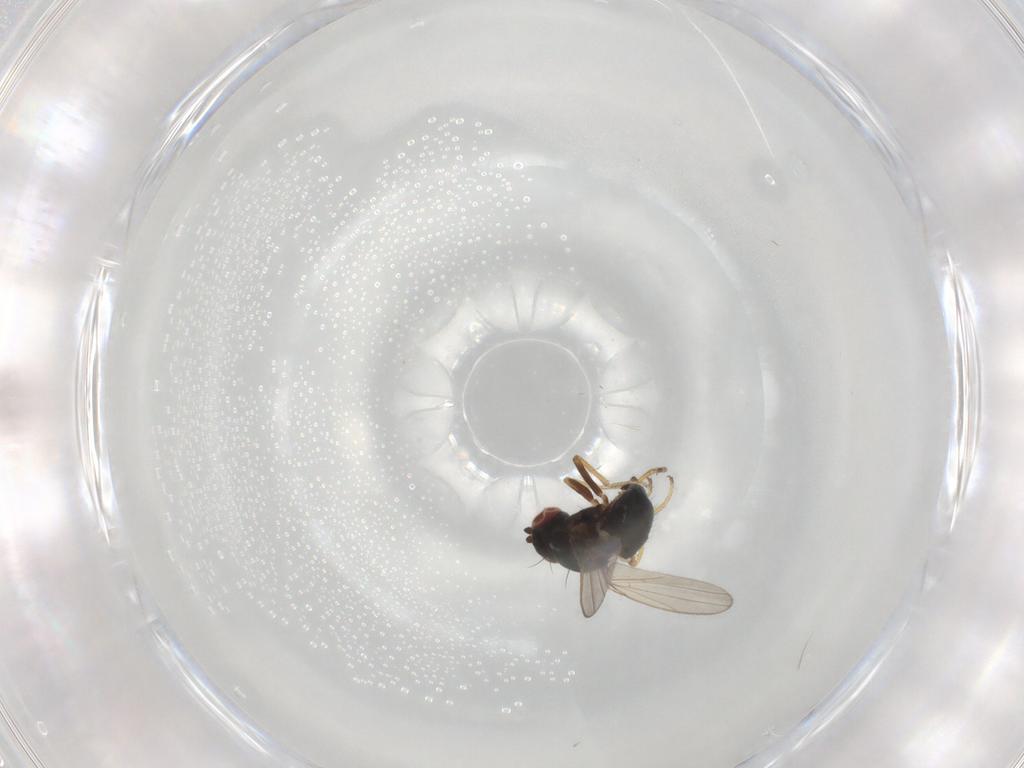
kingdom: Animalia
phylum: Arthropoda
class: Insecta
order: Diptera
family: Ephydridae
